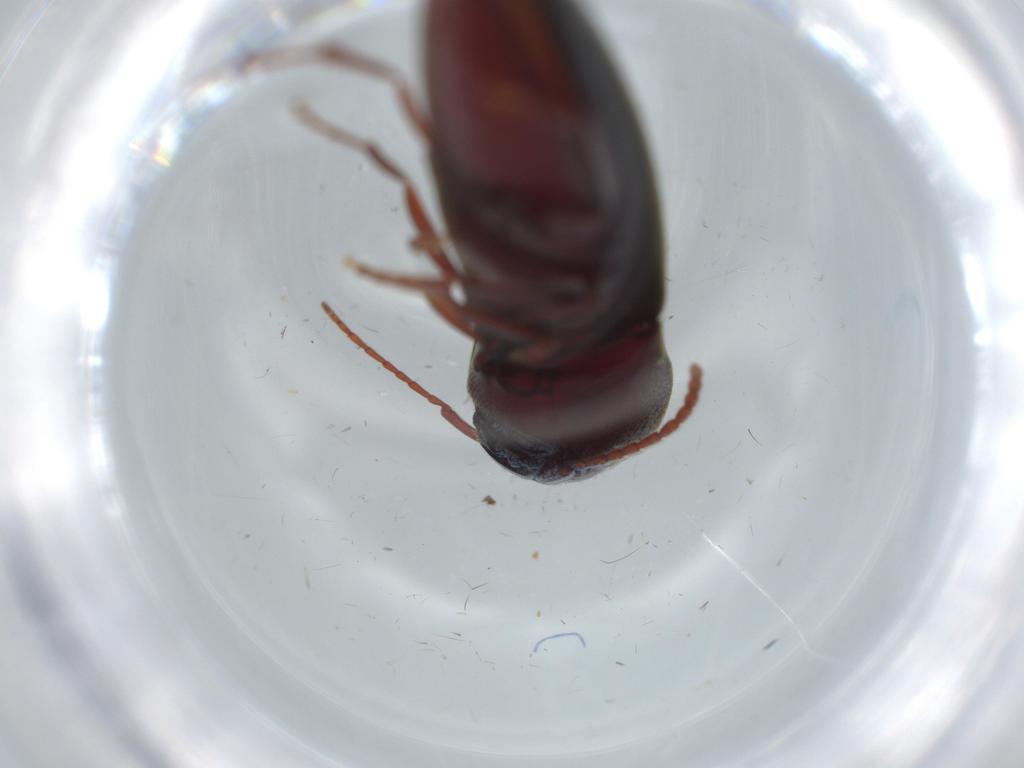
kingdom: Animalia
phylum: Arthropoda
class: Insecta
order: Coleoptera
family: Eucnemidae
